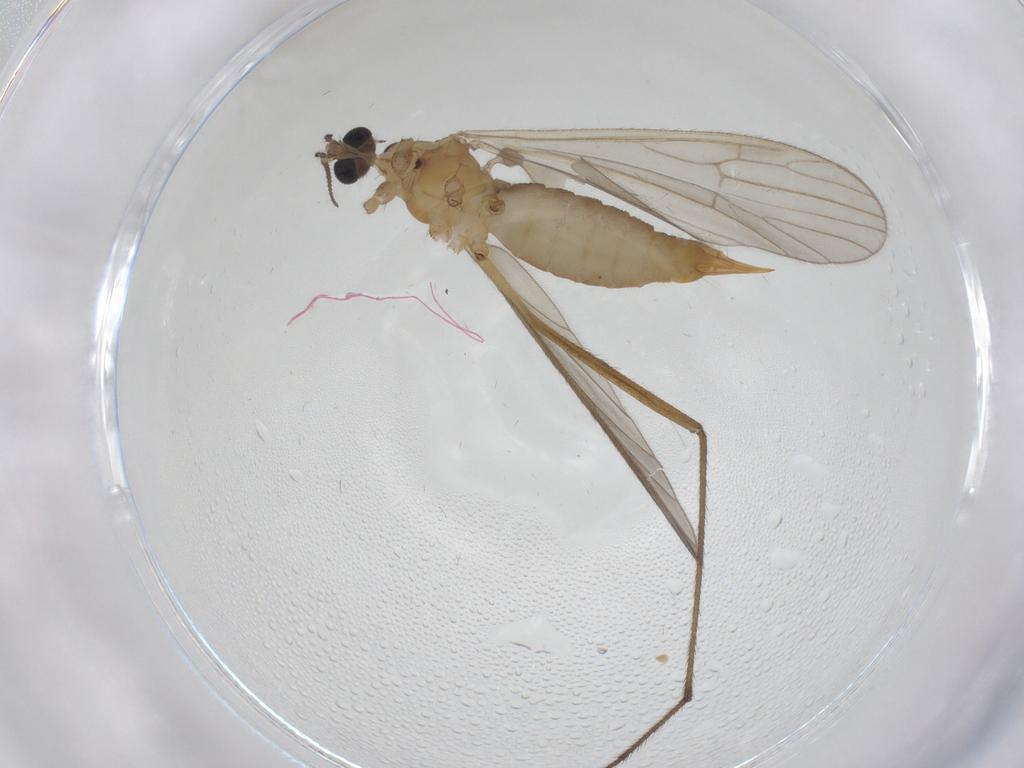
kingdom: Animalia
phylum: Arthropoda
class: Insecta
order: Diptera
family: Limoniidae
